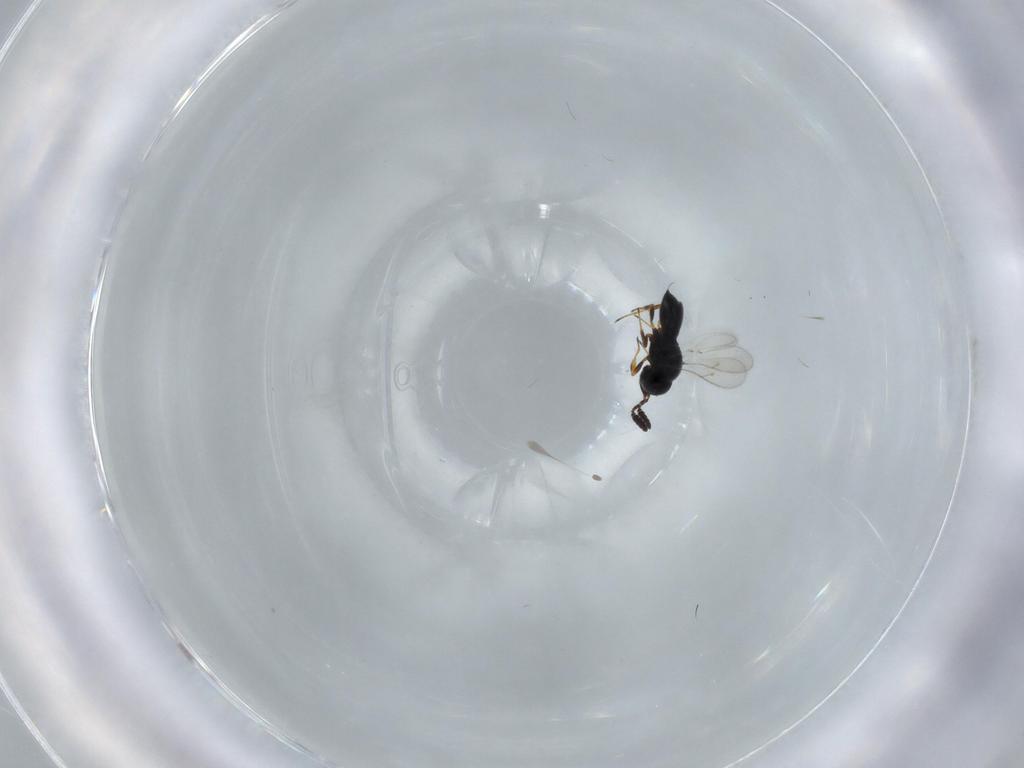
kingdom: Animalia
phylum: Arthropoda
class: Insecta
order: Hymenoptera
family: Scelionidae
